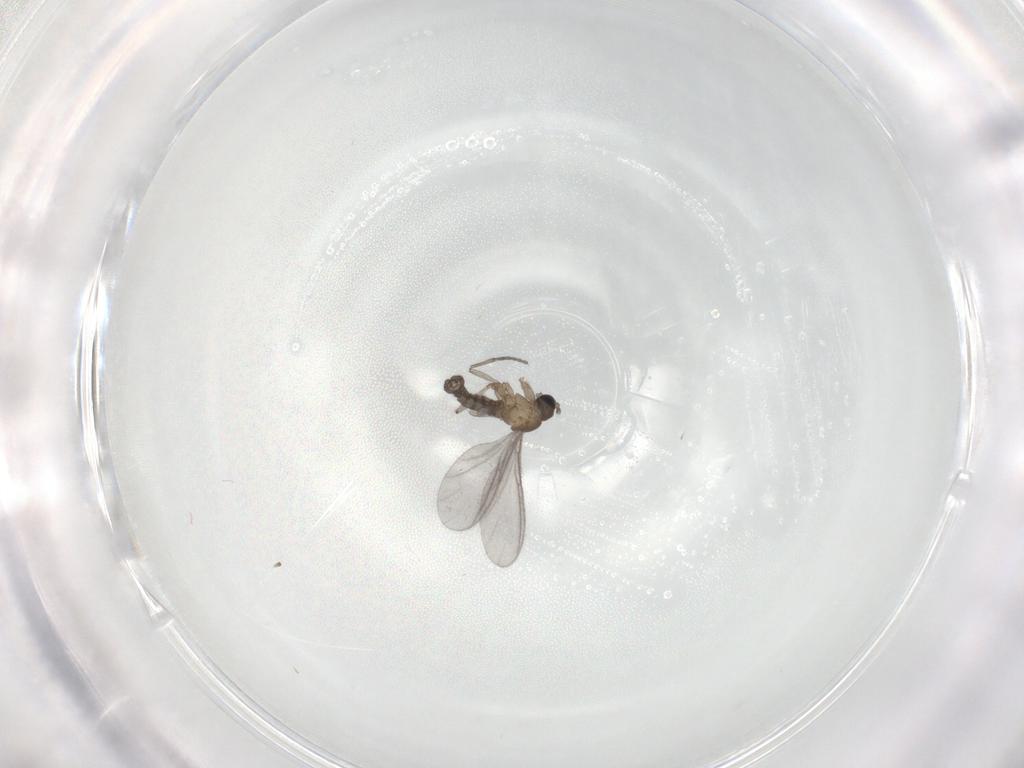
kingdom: Animalia
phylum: Arthropoda
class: Insecta
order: Diptera
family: Sciaridae
